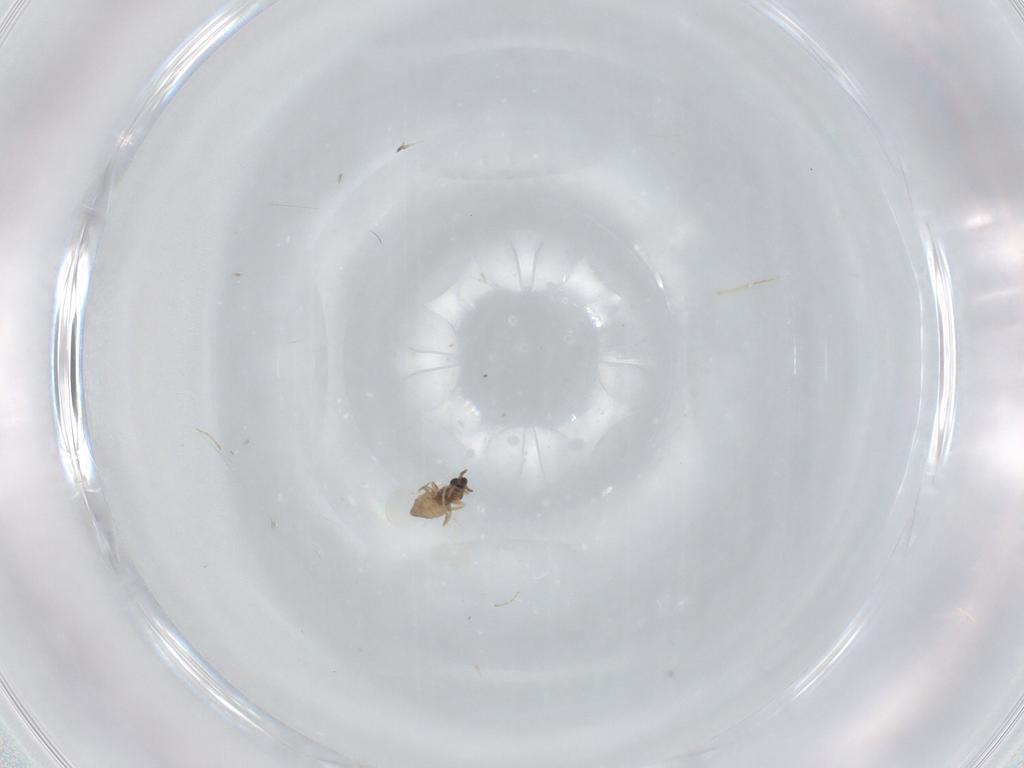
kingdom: Animalia
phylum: Arthropoda
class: Insecta
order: Diptera
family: Cecidomyiidae
